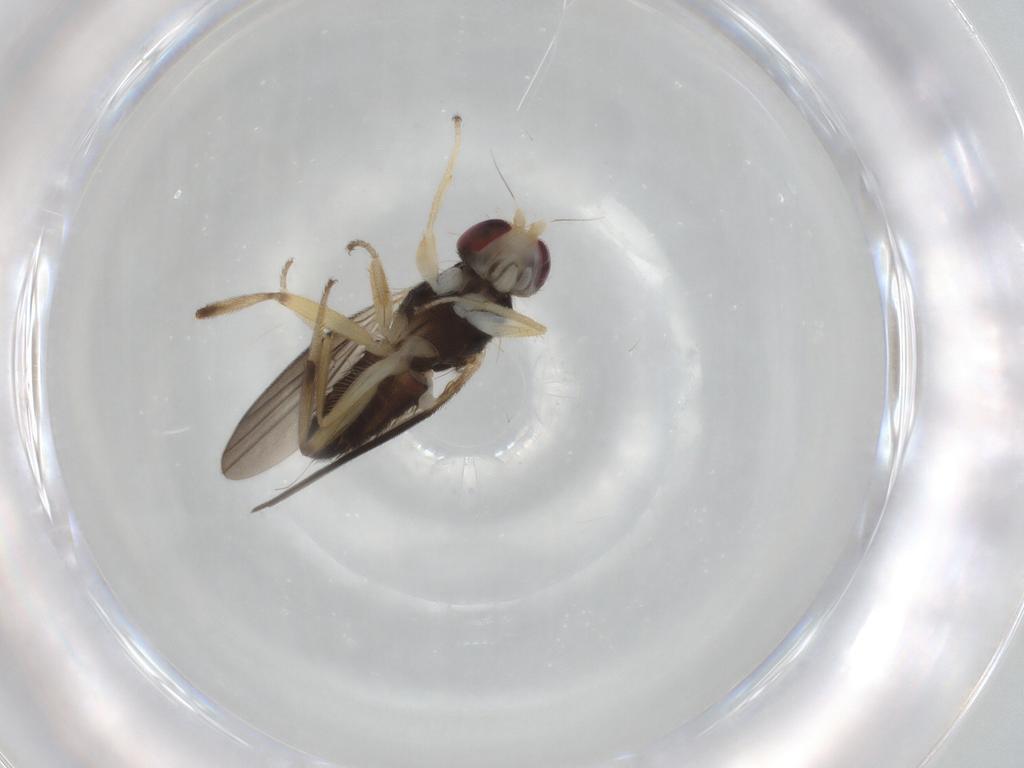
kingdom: Animalia
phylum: Arthropoda
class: Insecta
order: Diptera
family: Clusiidae
